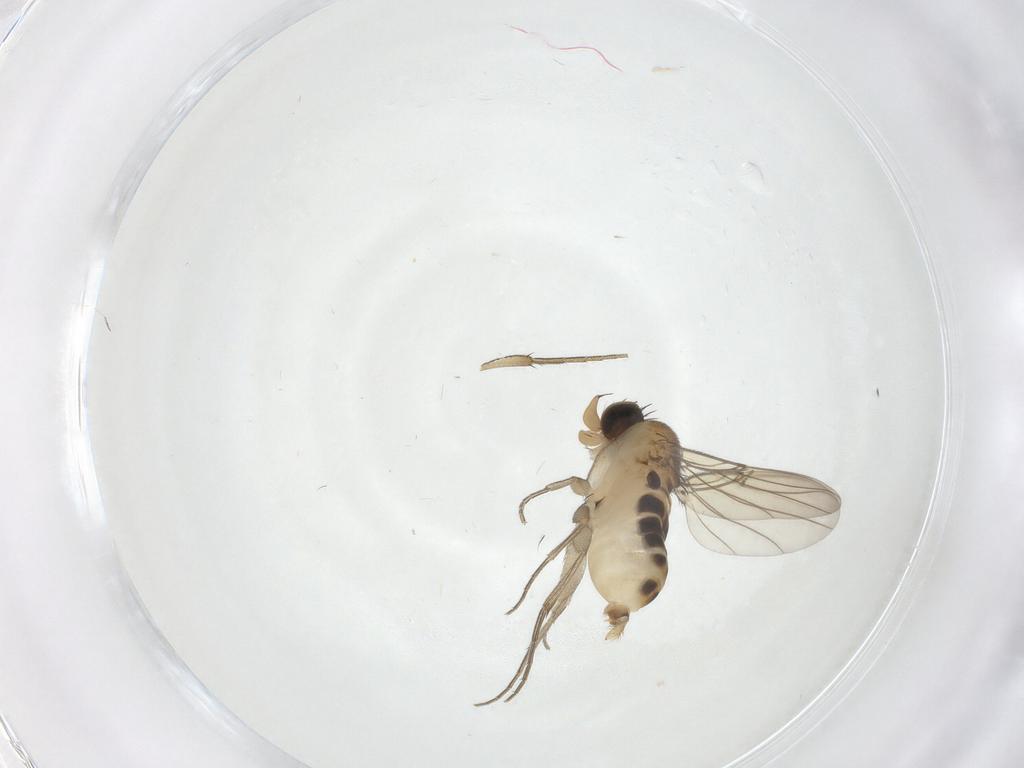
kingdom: Animalia
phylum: Arthropoda
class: Insecta
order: Diptera
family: Phoridae
